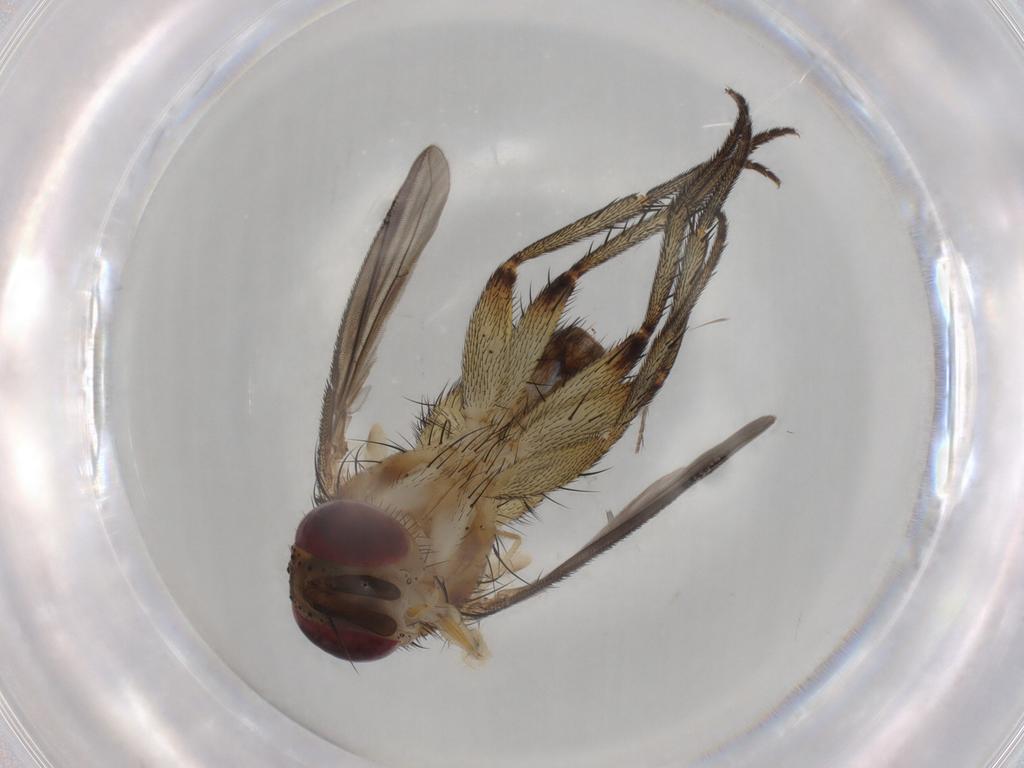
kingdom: Animalia
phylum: Arthropoda
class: Insecta
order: Diptera
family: Tachinidae
